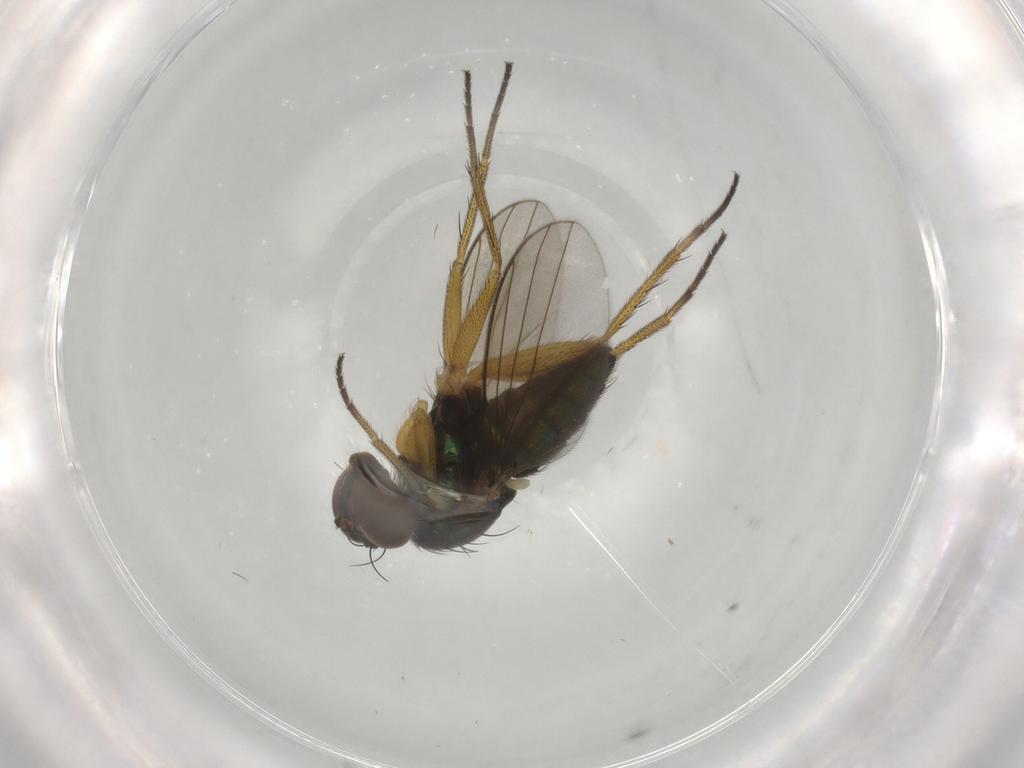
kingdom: Animalia
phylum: Arthropoda
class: Insecta
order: Diptera
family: Dolichopodidae
